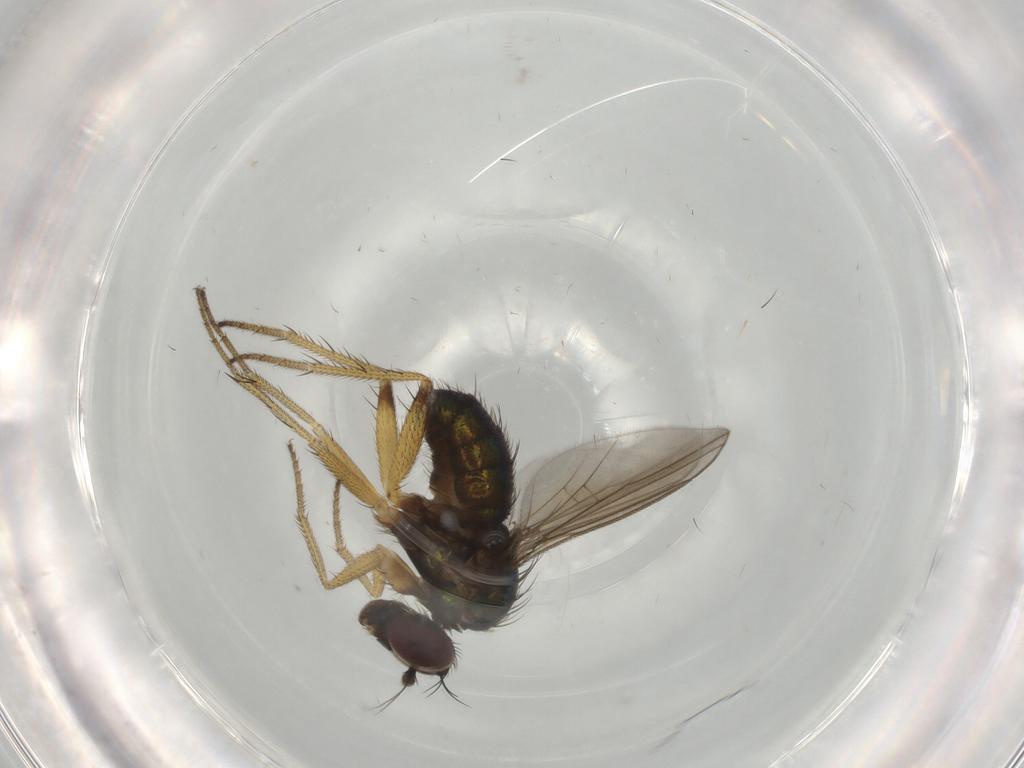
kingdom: Animalia
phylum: Arthropoda
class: Insecta
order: Diptera
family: Dolichopodidae
